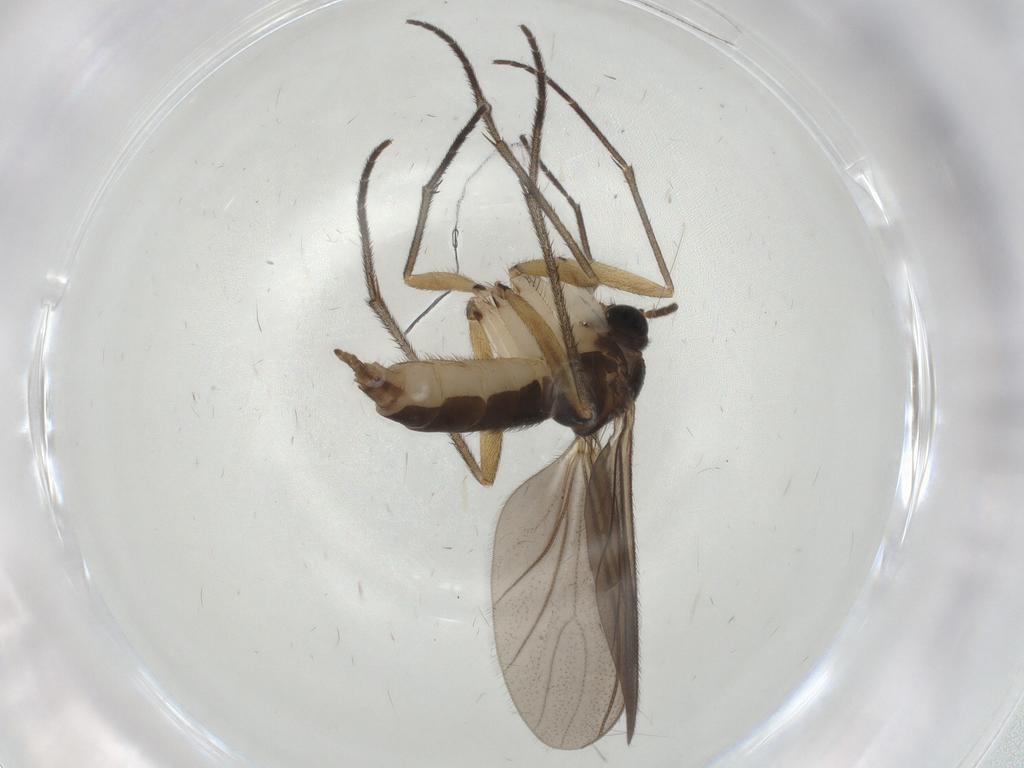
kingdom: Animalia
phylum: Arthropoda
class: Insecta
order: Diptera
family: Sciaridae
